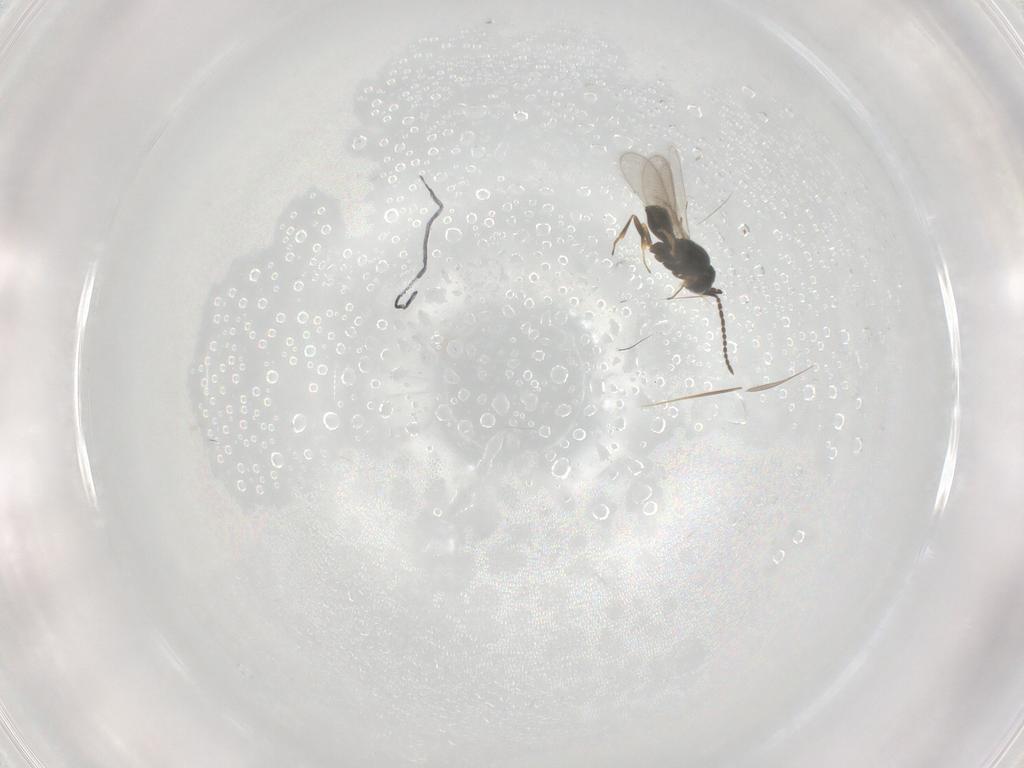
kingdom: Animalia
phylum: Arthropoda
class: Insecta
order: Hymenoptera
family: Scelionidae
